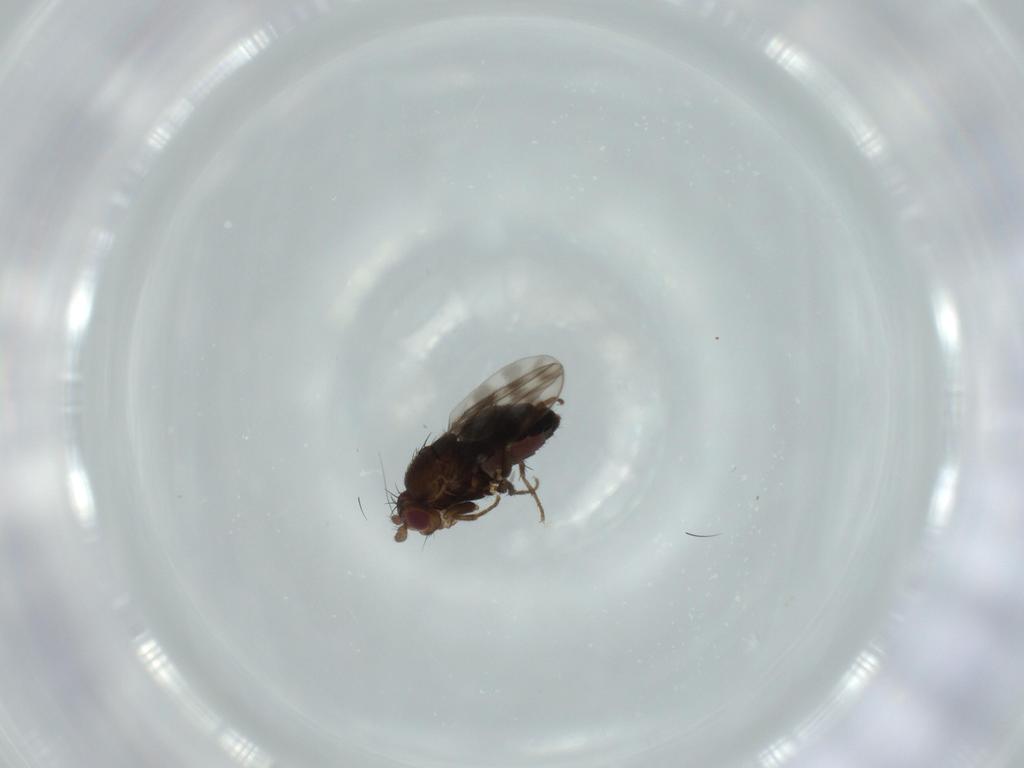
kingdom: Animalia
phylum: Arthropoda
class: Insecta
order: Diptera
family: Sphaeroceridae
